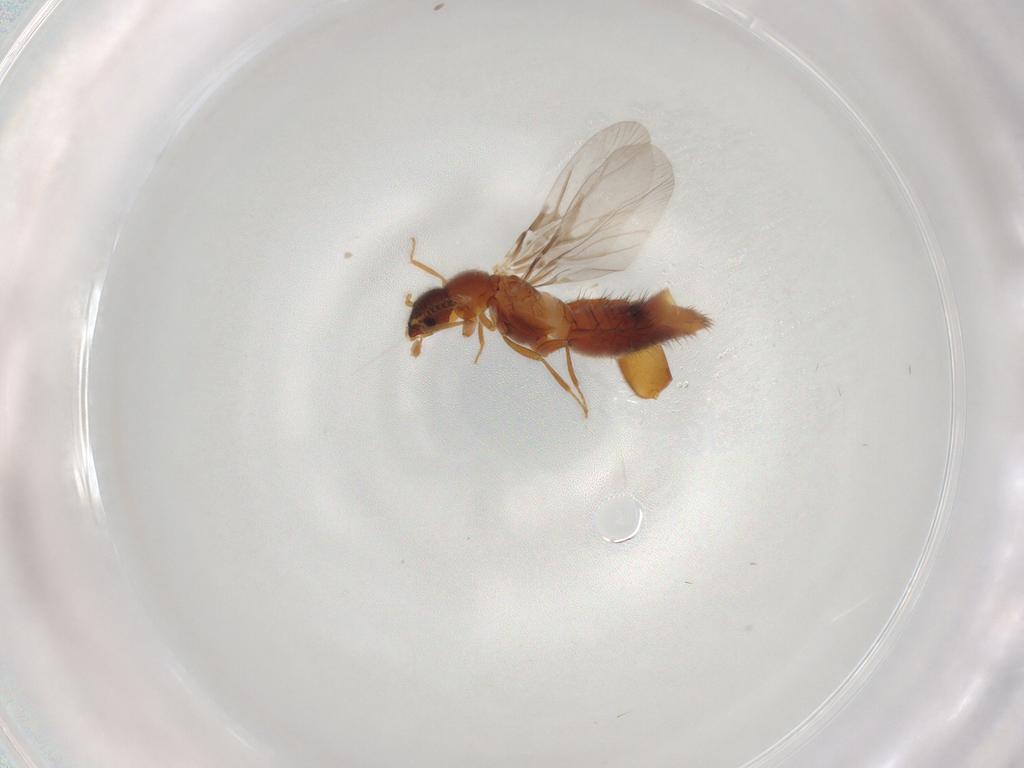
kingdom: Animalia
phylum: Arthropoda
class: Insecta
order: Coleoptera
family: Staphylinidae
